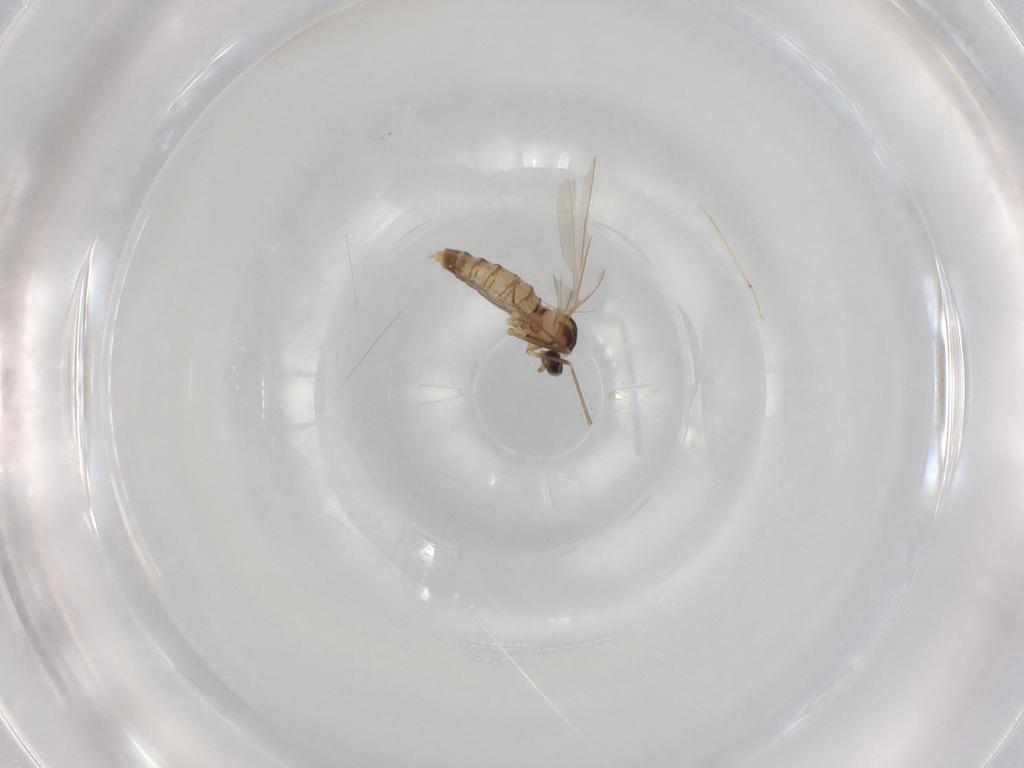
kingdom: Animalia
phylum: Arthropoda
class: Insecta
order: Diptera
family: Cecidomyiidae
